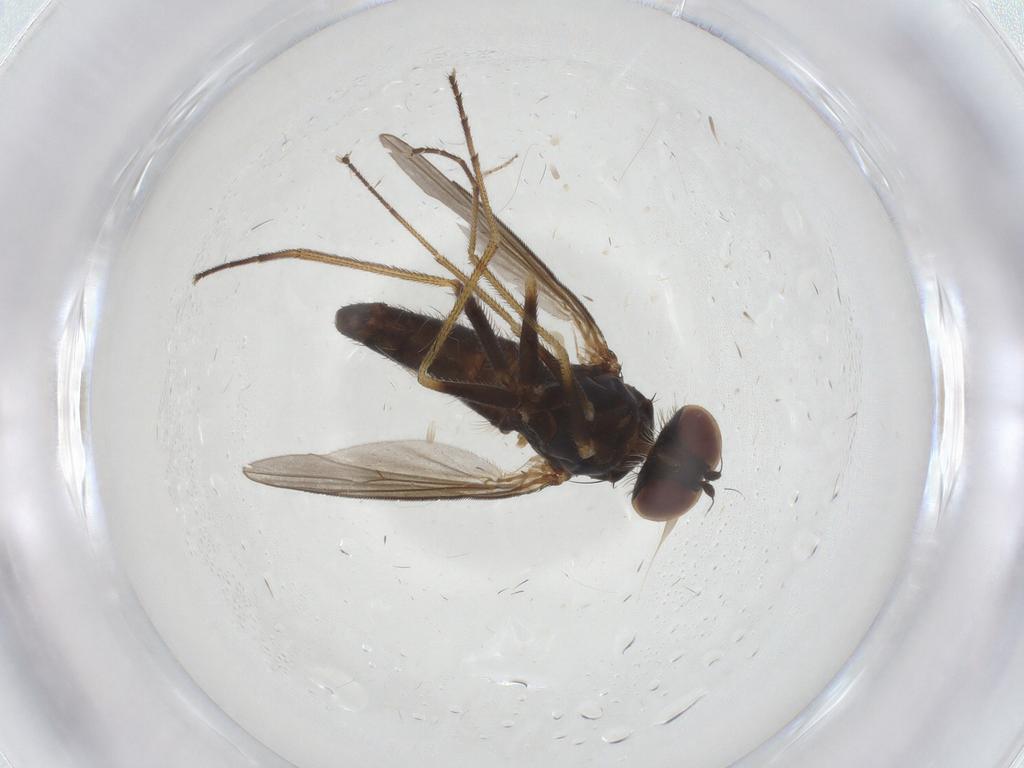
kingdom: Animalia
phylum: Arthropoda
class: Insecta
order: Diptera
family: Dolichopodidae
